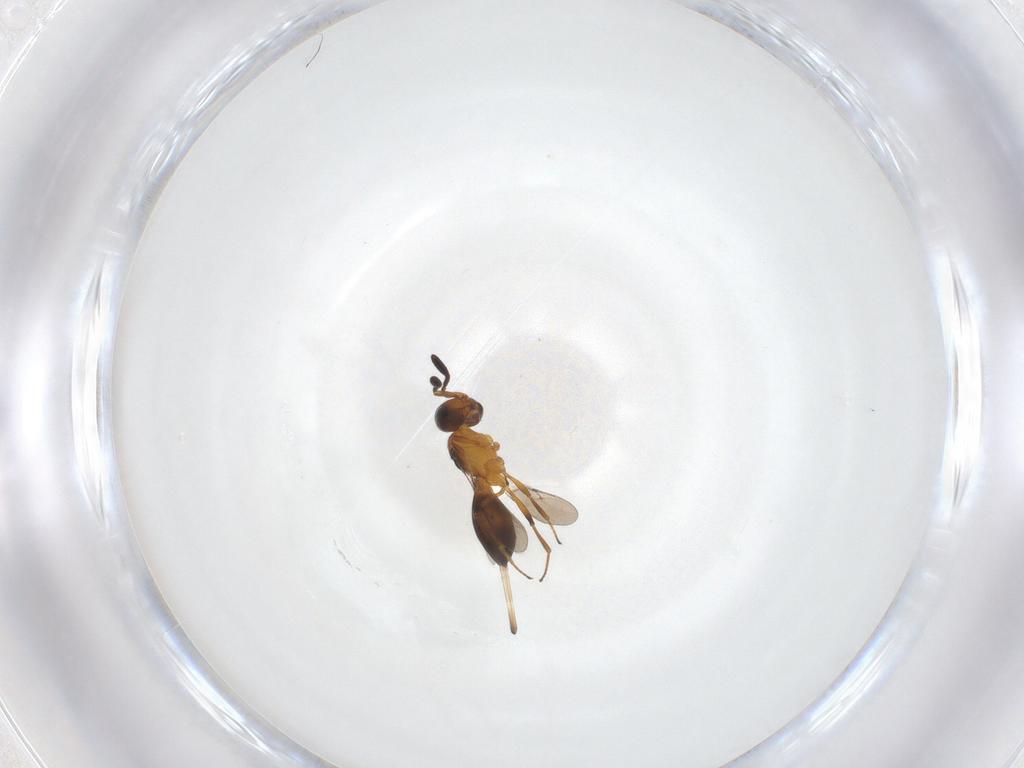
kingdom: Animalia
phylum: Arthropoda
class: Insecta
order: Hymenoptera
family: Scelionidae
